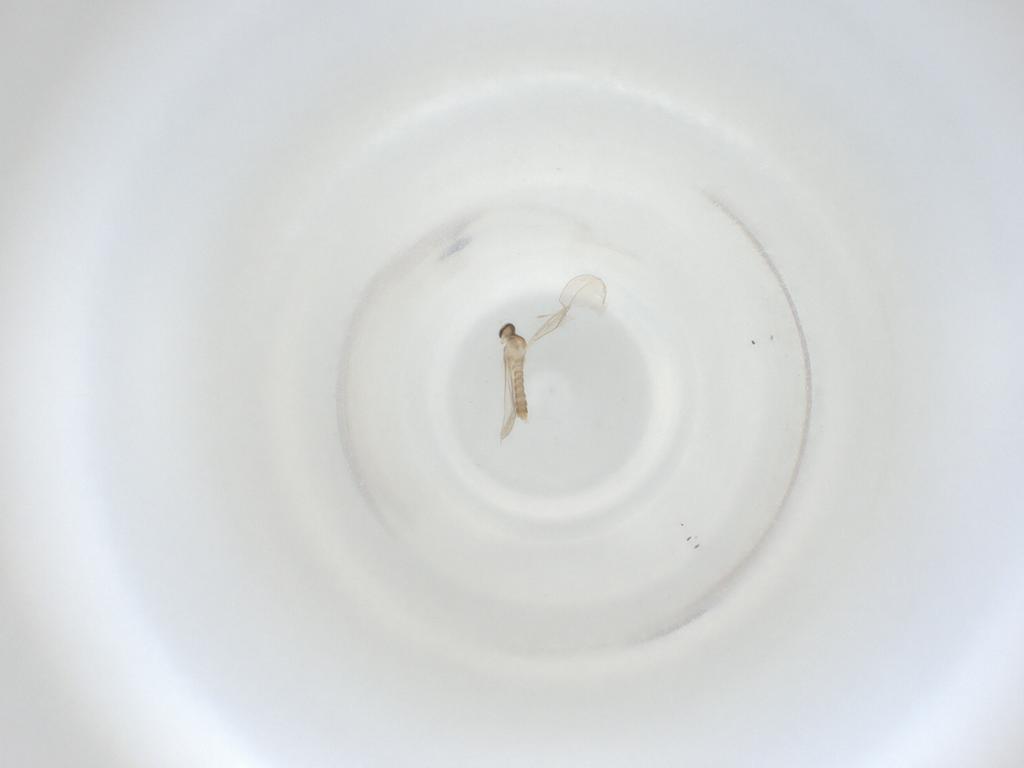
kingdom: Animalia
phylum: Arthropoda
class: Insecta
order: Diptera
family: Cecidomyiidae
